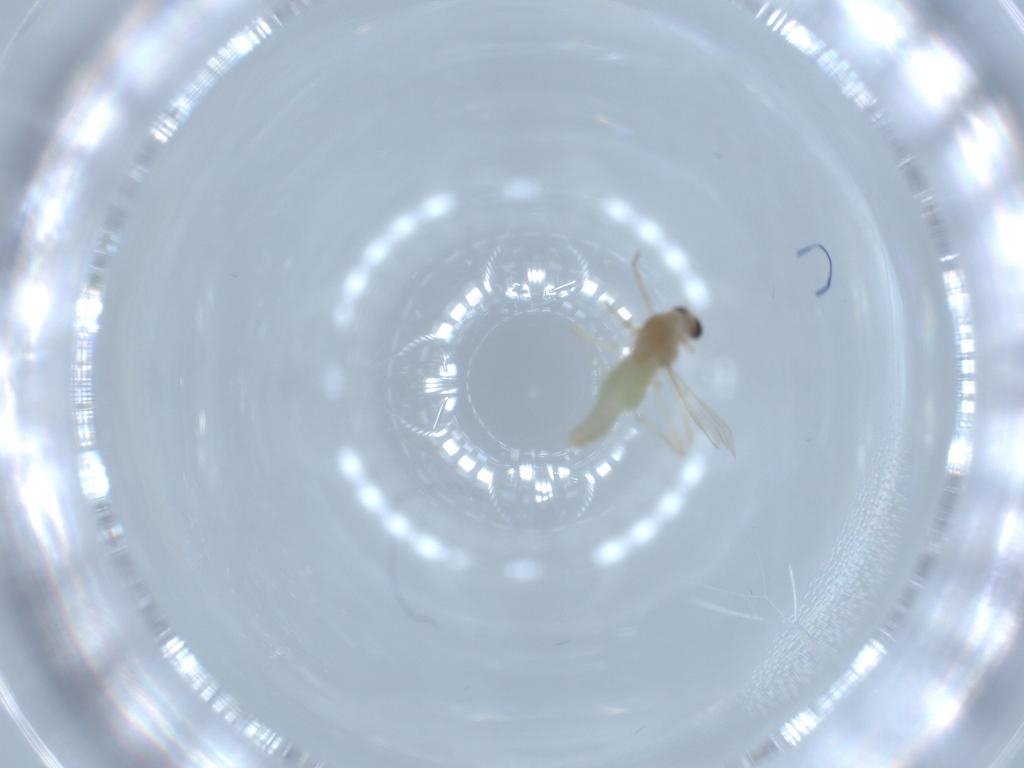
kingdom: Animalia
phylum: Arthropoda
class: Insecta
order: Diptera
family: Chironomidae
